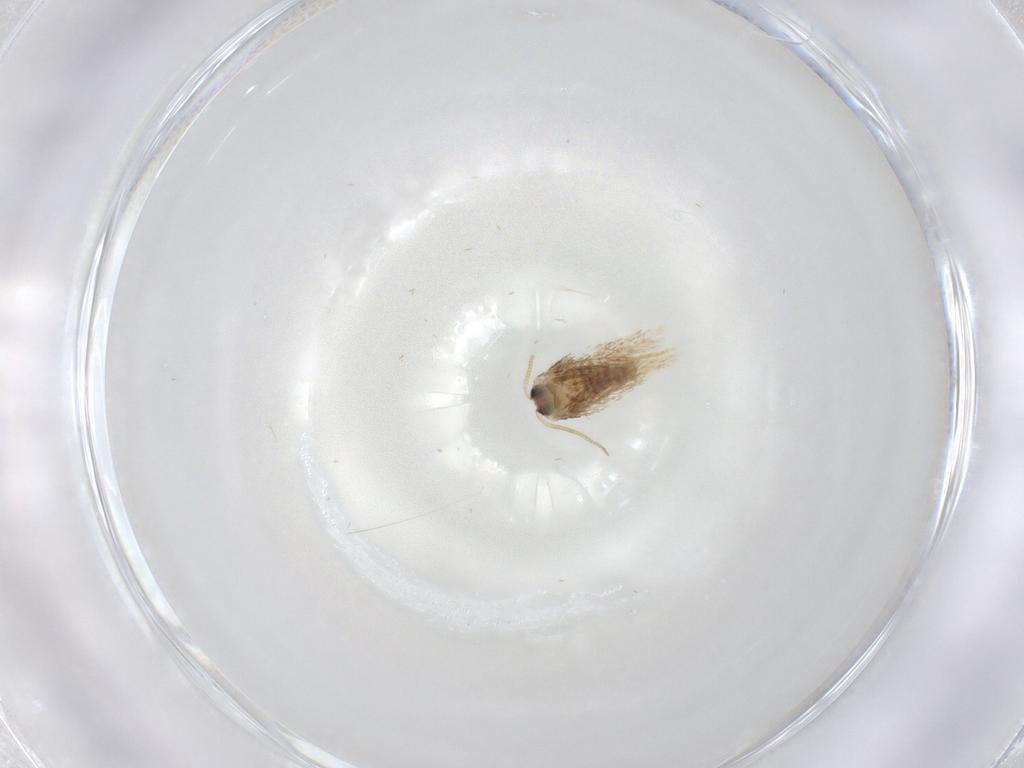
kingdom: Animalia
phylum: Arthropoda
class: Insecta
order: Lepidoptera
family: Nepticulidae
